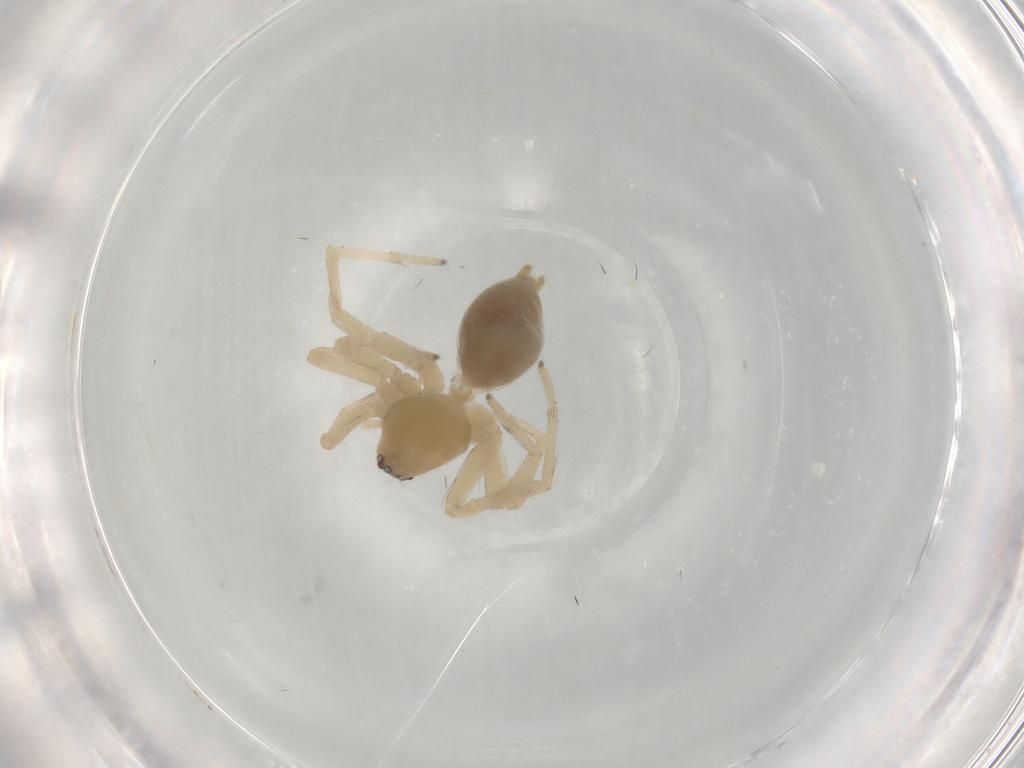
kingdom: Animalia
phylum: Arthropoda
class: Arachnida
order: Araneae
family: Anyphaenidae
